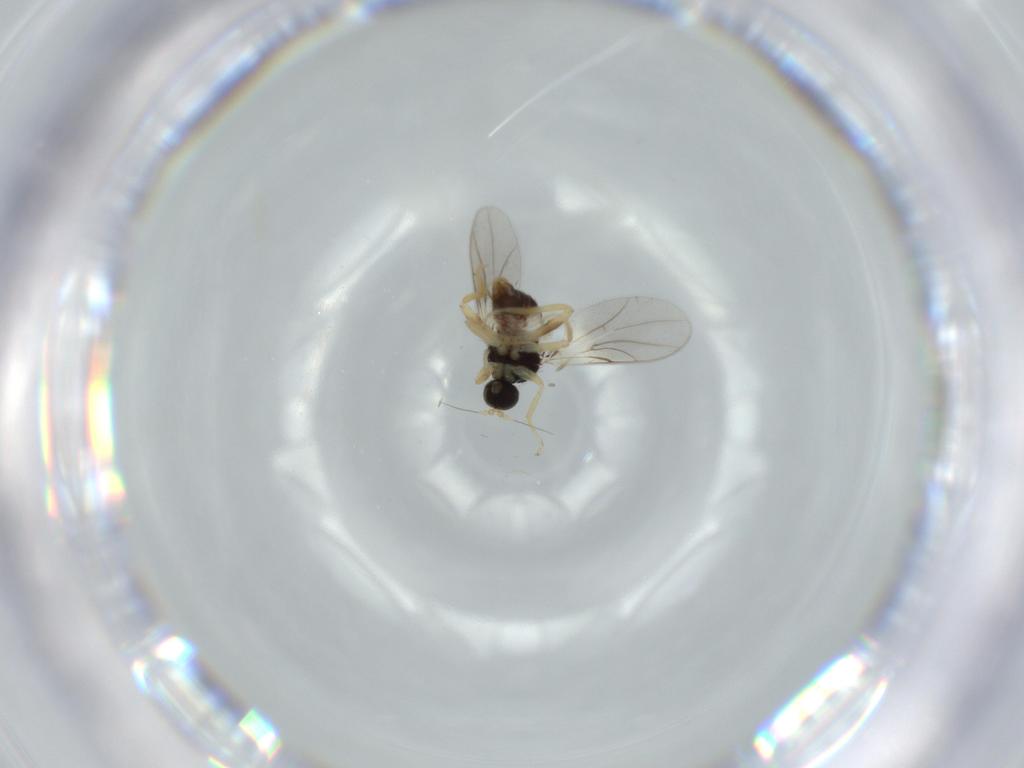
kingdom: Animalia
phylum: Arthropoda
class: Insecta
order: Diptera
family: Hybotidae
